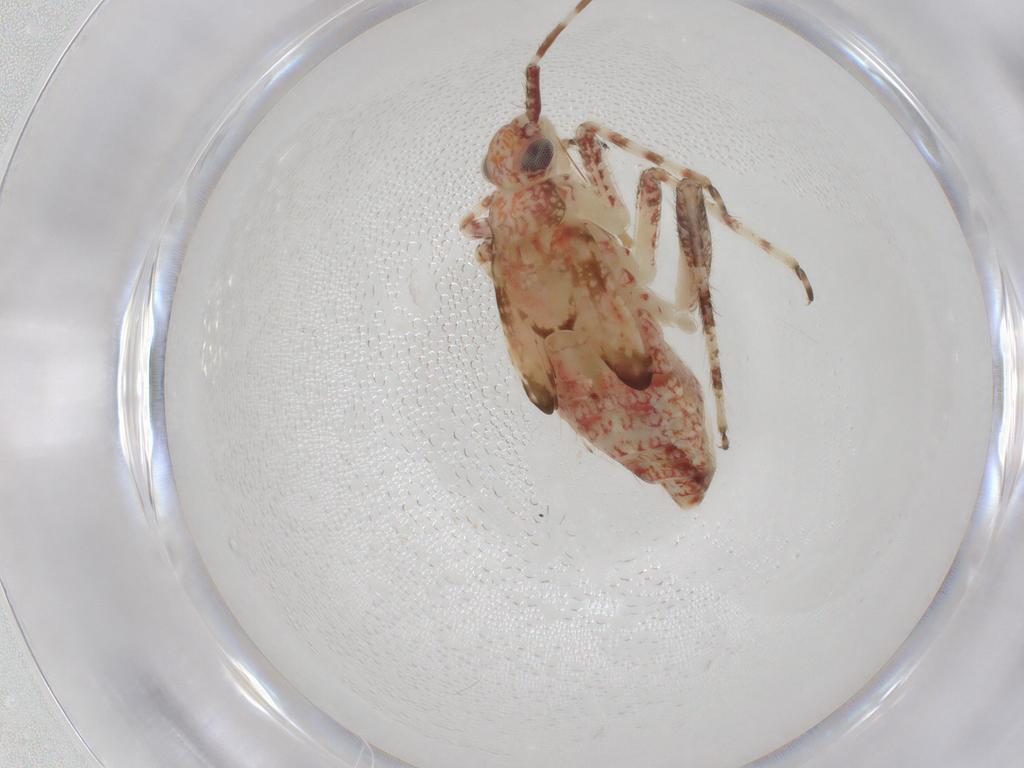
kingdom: Animalia
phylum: Arthropoda
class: Insecta
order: Hemiptera
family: Miridae
